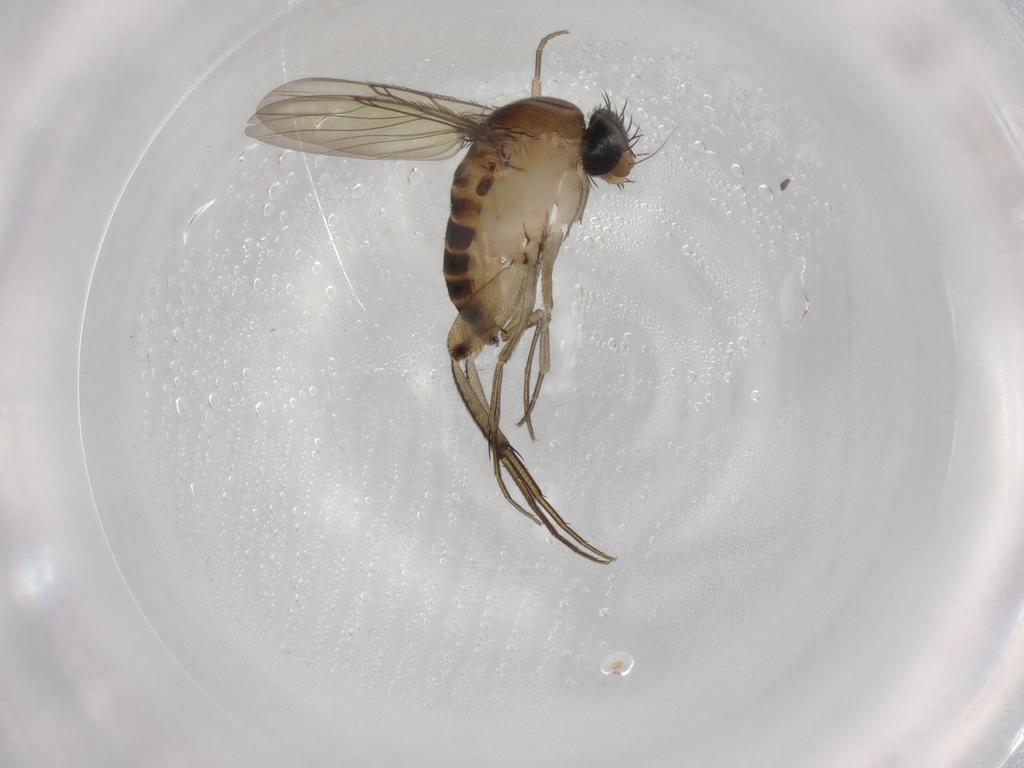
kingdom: Animalia
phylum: Arthropoda
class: Insecta
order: Diptera
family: Phoridae
